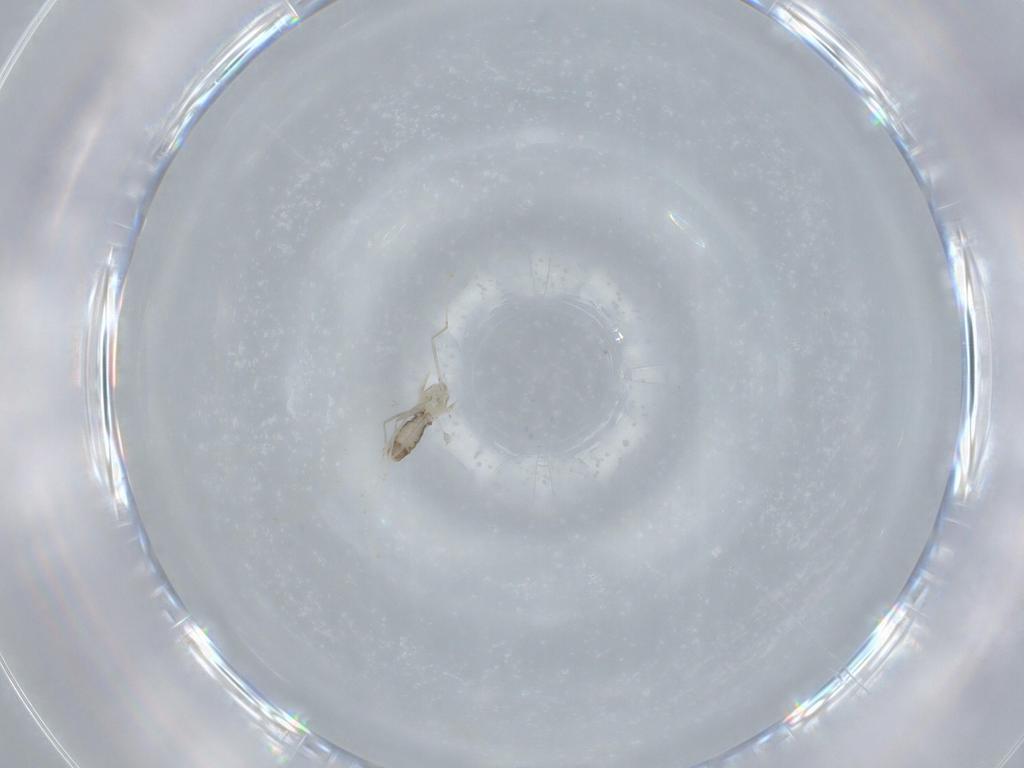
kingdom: Animalia
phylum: Arthropoda
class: Insecta
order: Diptera
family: Cecidomyiidae
